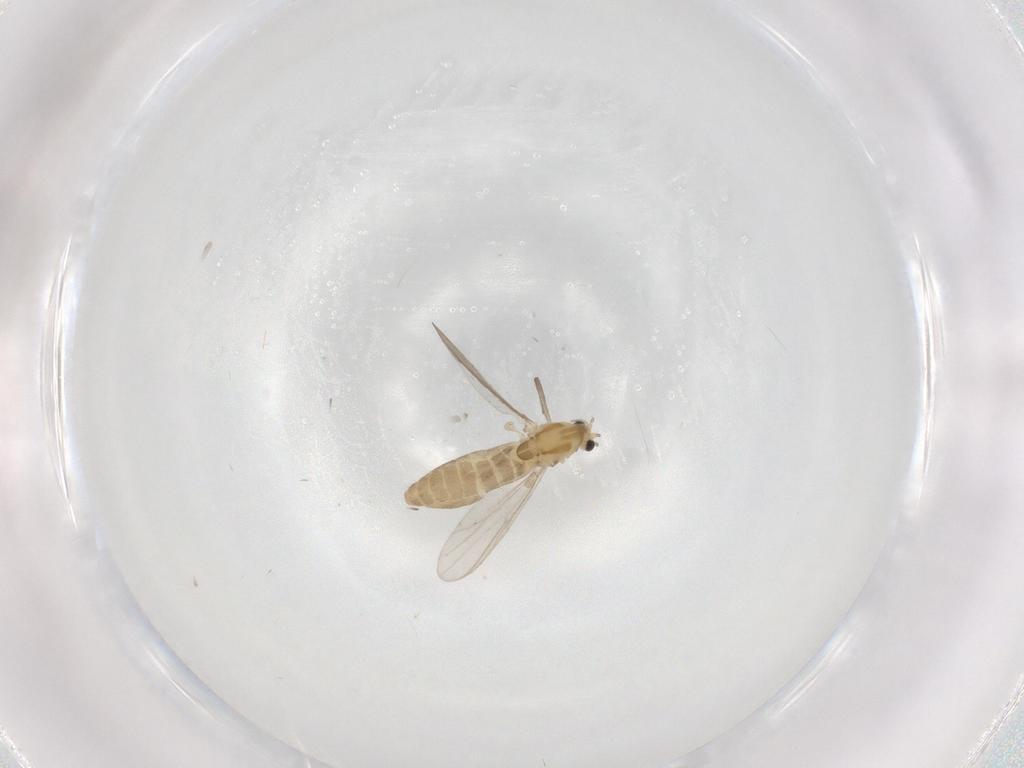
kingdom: Animalia
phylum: Arthropoda
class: Insecta
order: Diptera
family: Chironomidae
